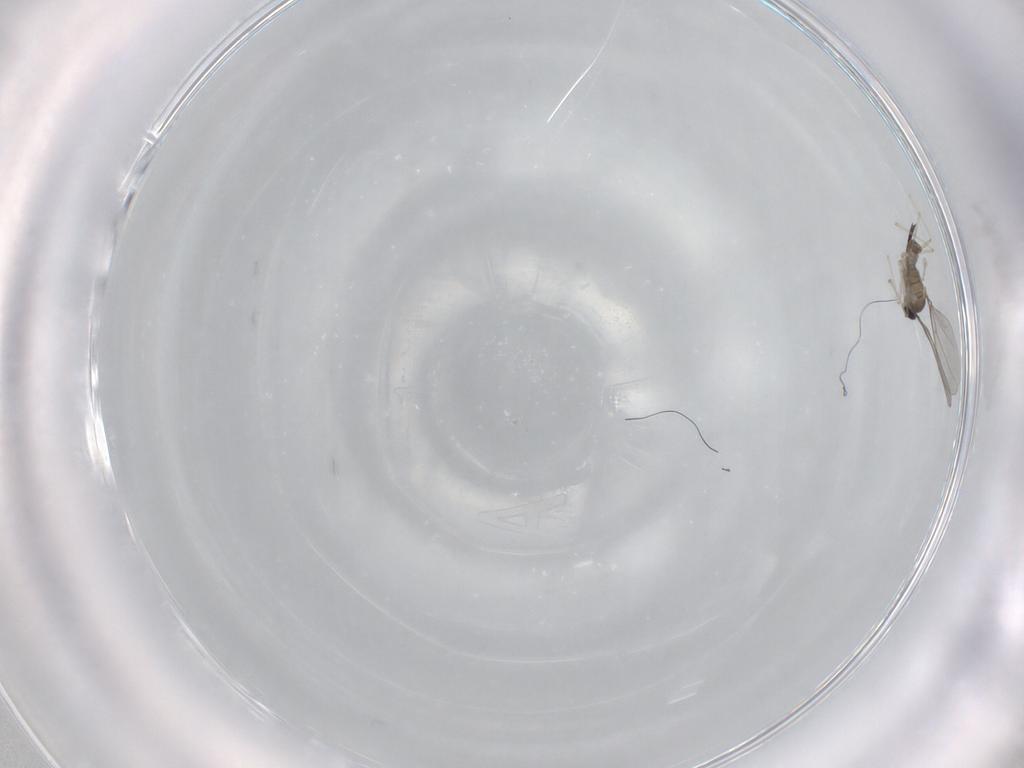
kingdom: Animalia
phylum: Arthropoda
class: Insecta
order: Diptera
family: Cecidomyiidae
